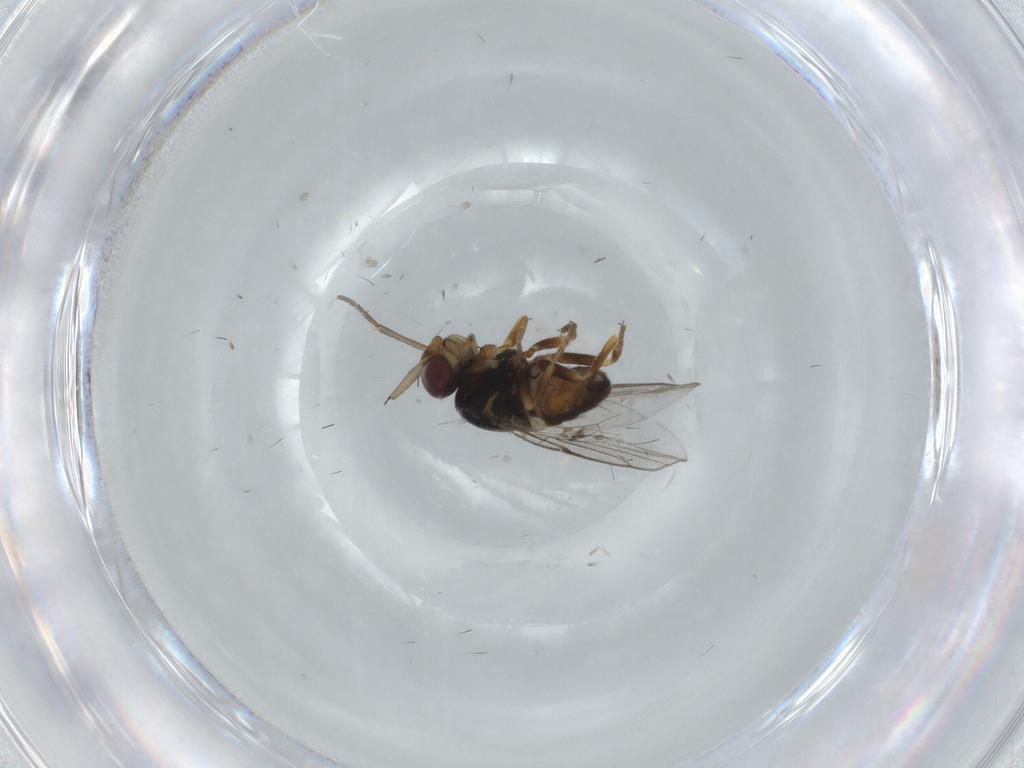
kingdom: Animalia
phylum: Arthropoda
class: Insecta
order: Diptera
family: Chloropidae
